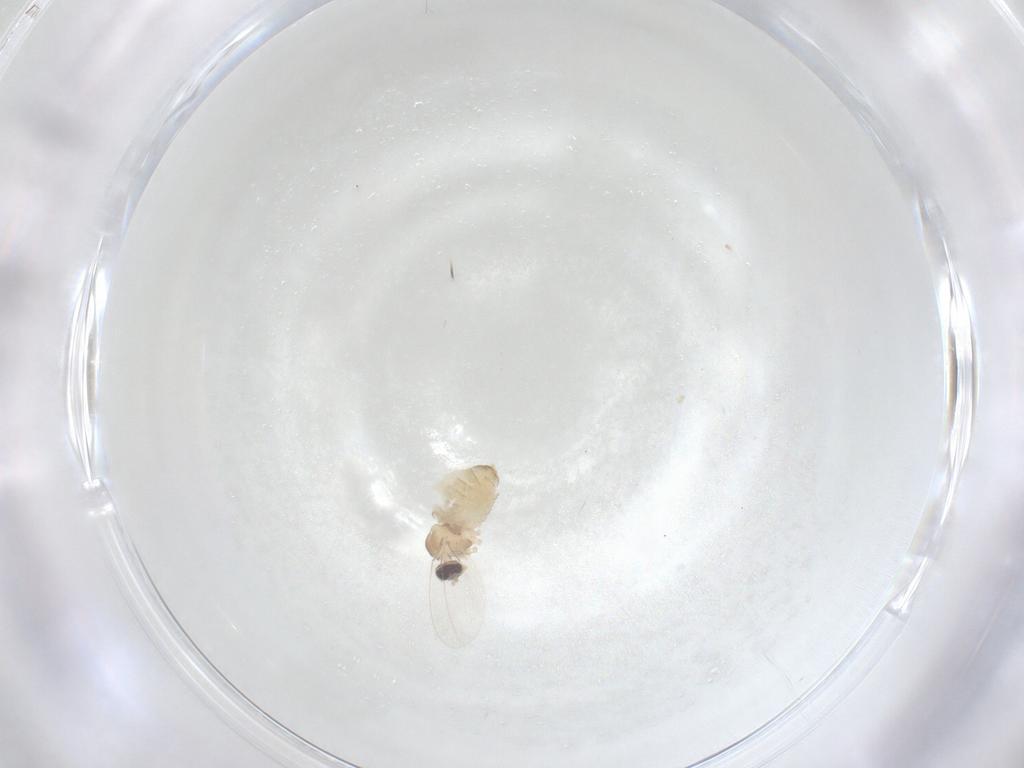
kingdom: Animalia
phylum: Arthropoda
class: Insecta
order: Diptera
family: Cecidomyiidae
